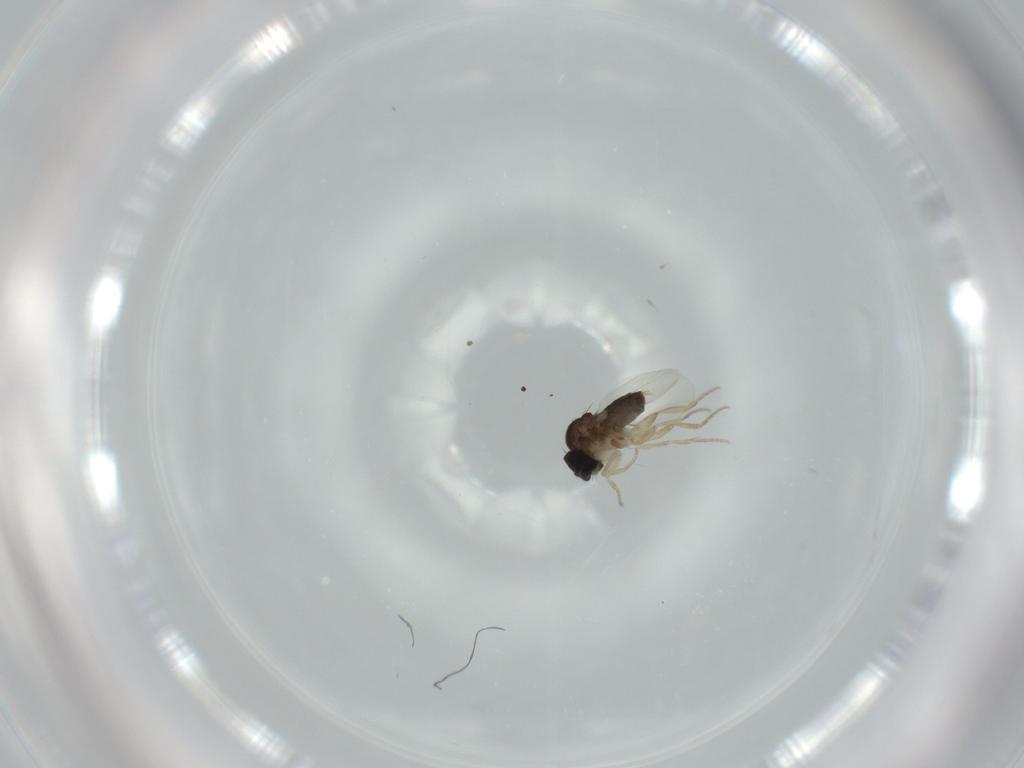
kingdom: Animalia
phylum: Arthropoda
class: Insecta
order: Diptera
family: Phoridae
